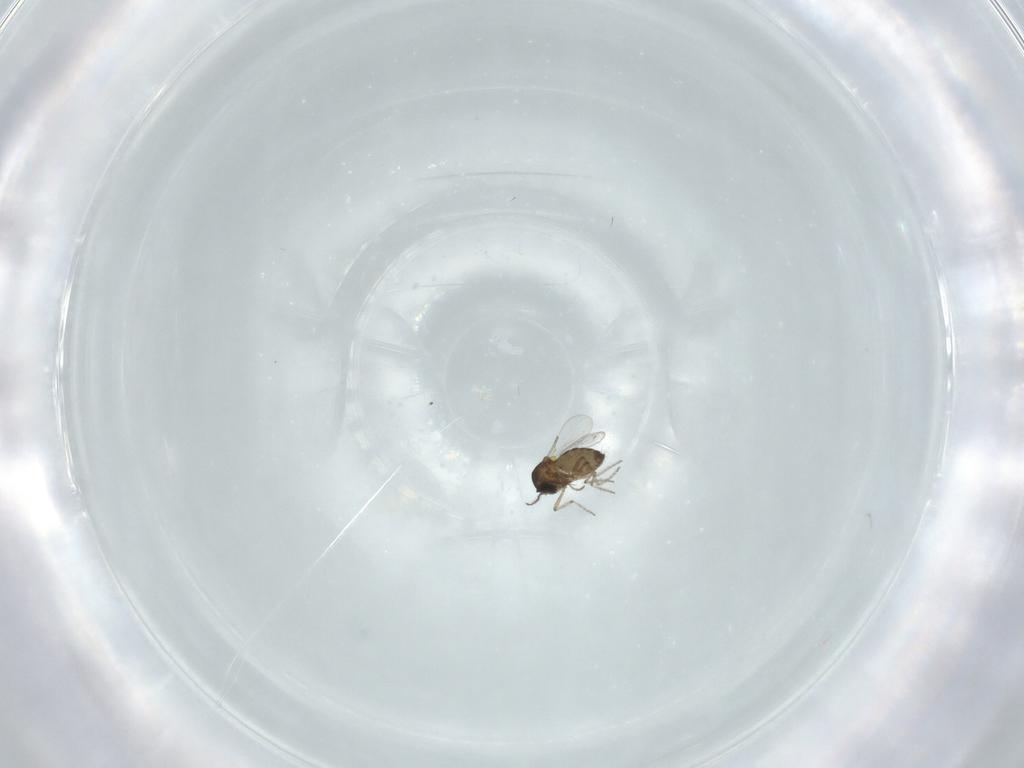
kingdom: Animalia
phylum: Arthropoda
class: Insecta
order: Diptera
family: Ceratopogonidae
